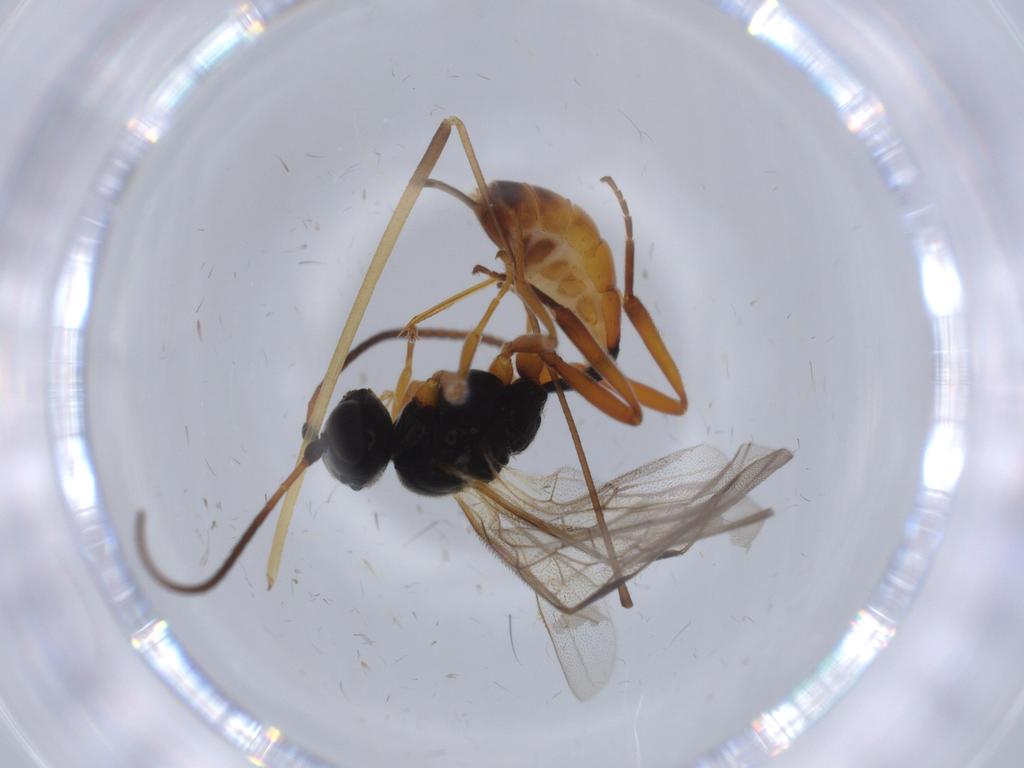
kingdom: Animalia
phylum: Arthropoda
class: Insecta
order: Hymenoptera
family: Ichneumonidae
